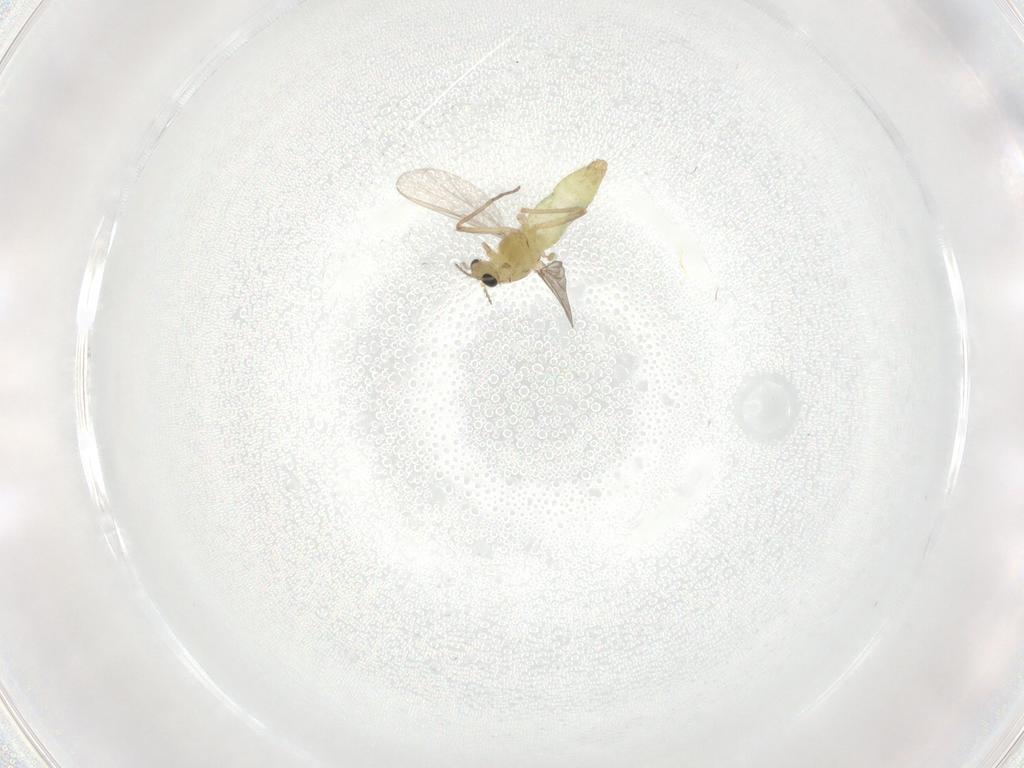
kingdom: Animalia
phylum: Arthropoda
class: Insecta
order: Diptera
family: Chironomidae
